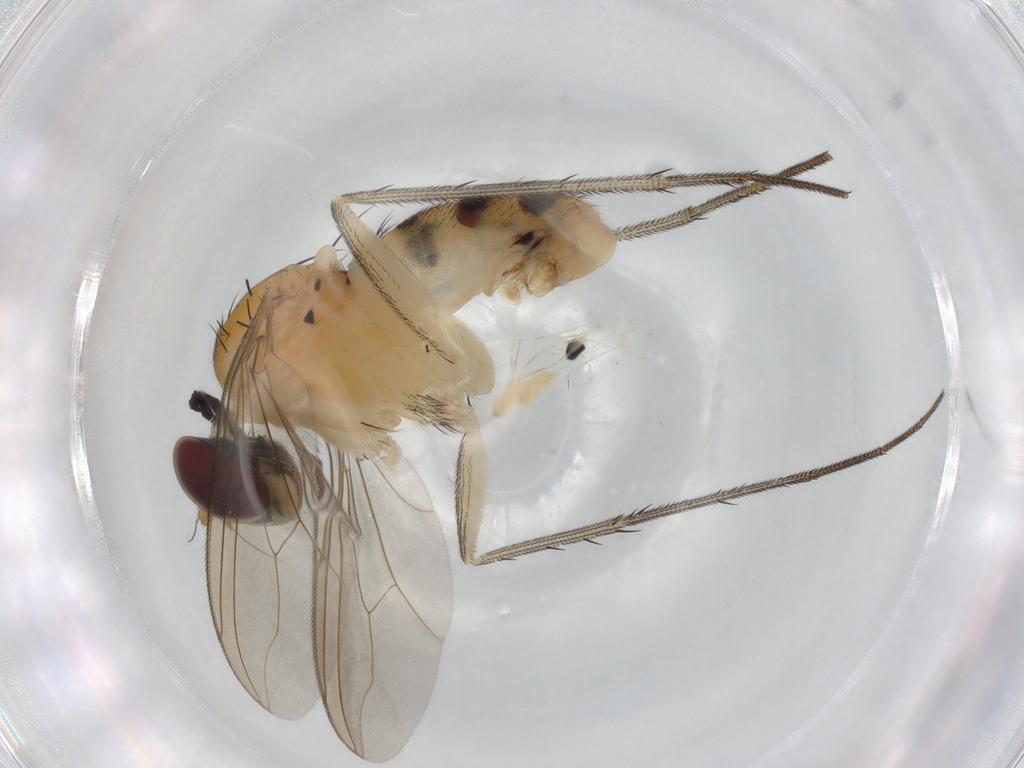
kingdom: Animalia
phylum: Arthropoda
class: Insecta
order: Diptera
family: Dolichopodidae
